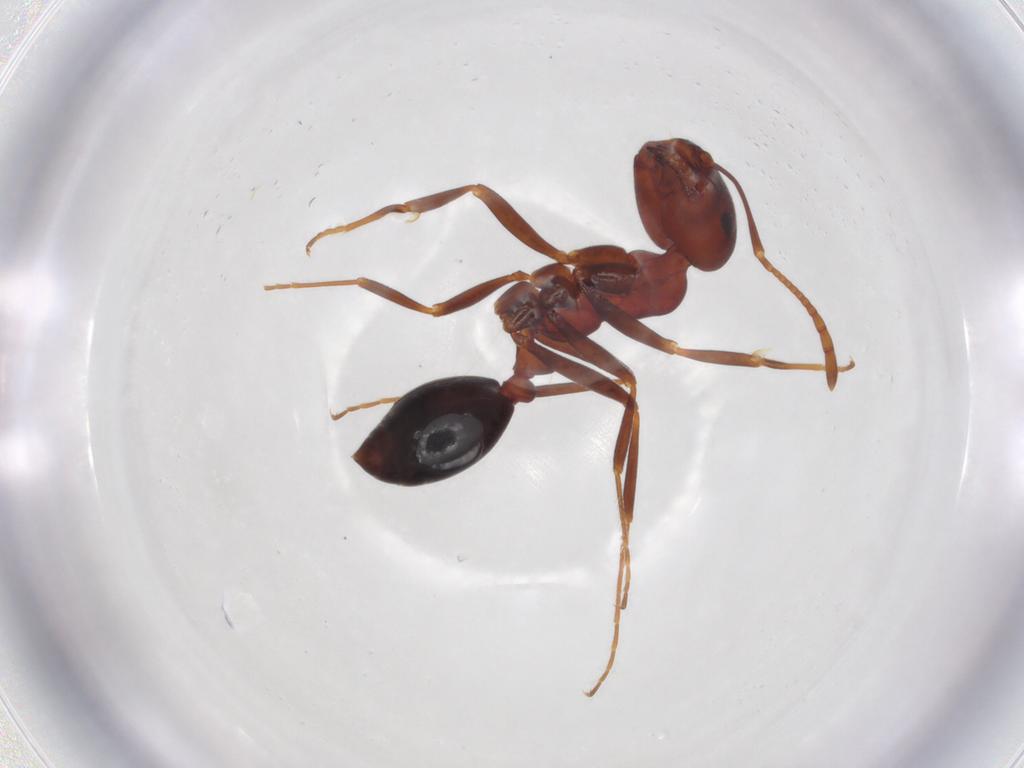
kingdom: Animalia
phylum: Arthropoda
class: Insecta
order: Hymenoptera
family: Formicidae
